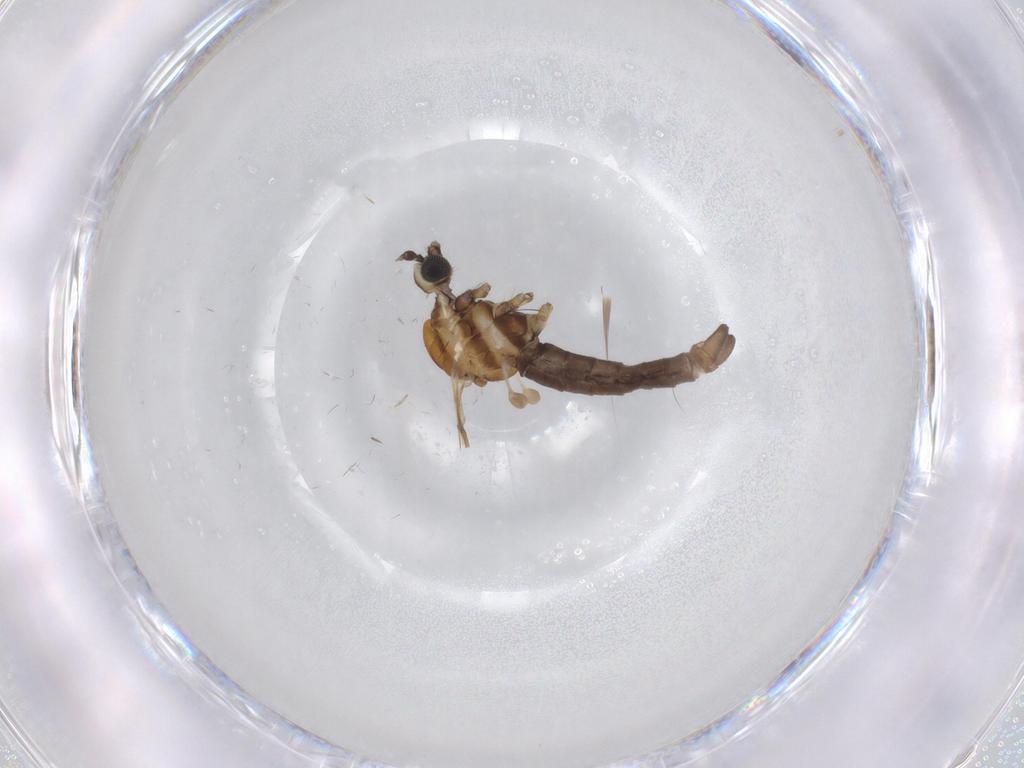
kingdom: Animalia
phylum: Arthropoda
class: Insecta
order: Diptera
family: Limoniidae
